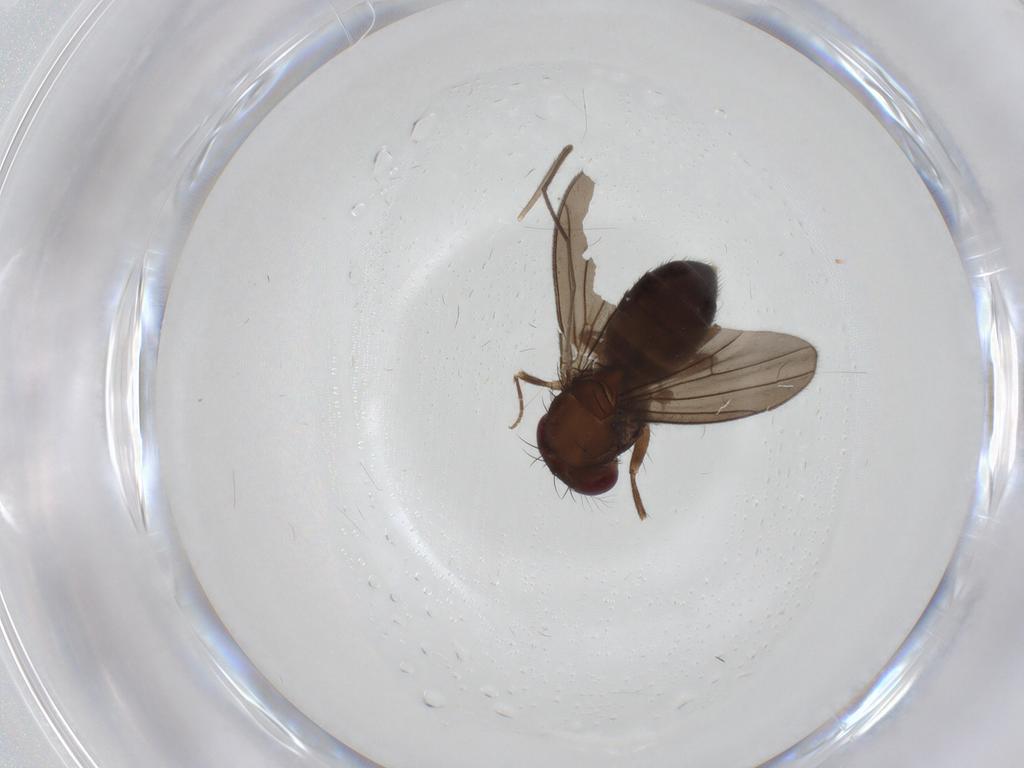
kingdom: Animalia
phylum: Arthropoda
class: Insecta
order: Diptera
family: Drosophilidae
